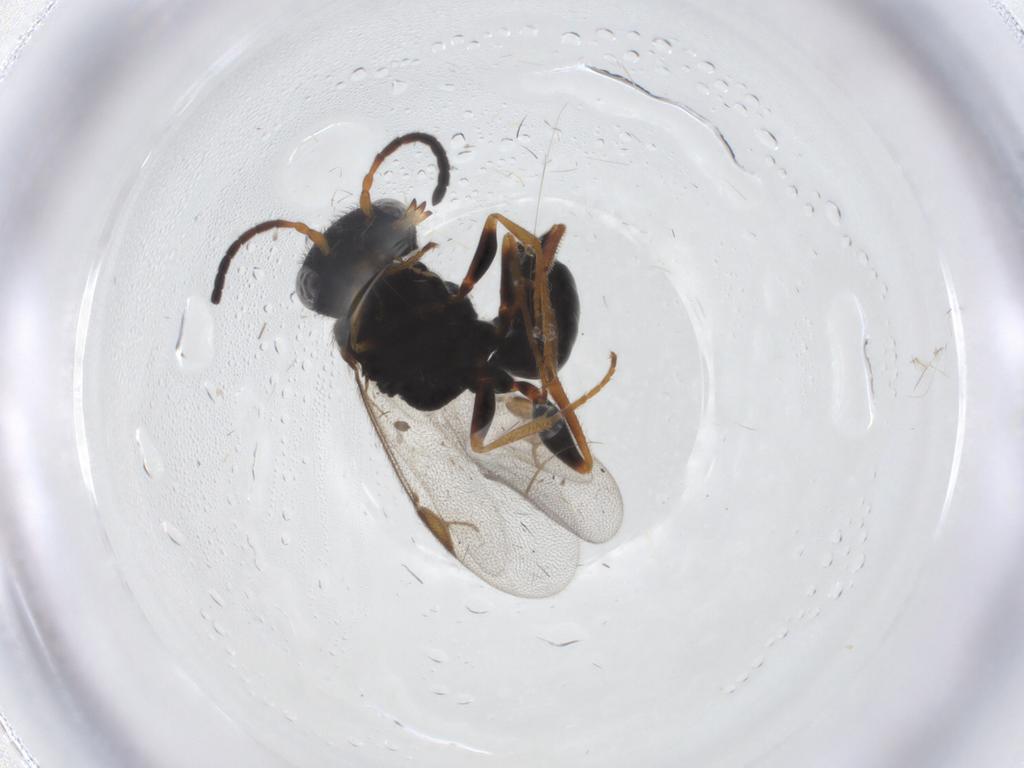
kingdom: Animalia
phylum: Arthropoda
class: Insecta
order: Hymenoptera
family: Dryinidae
